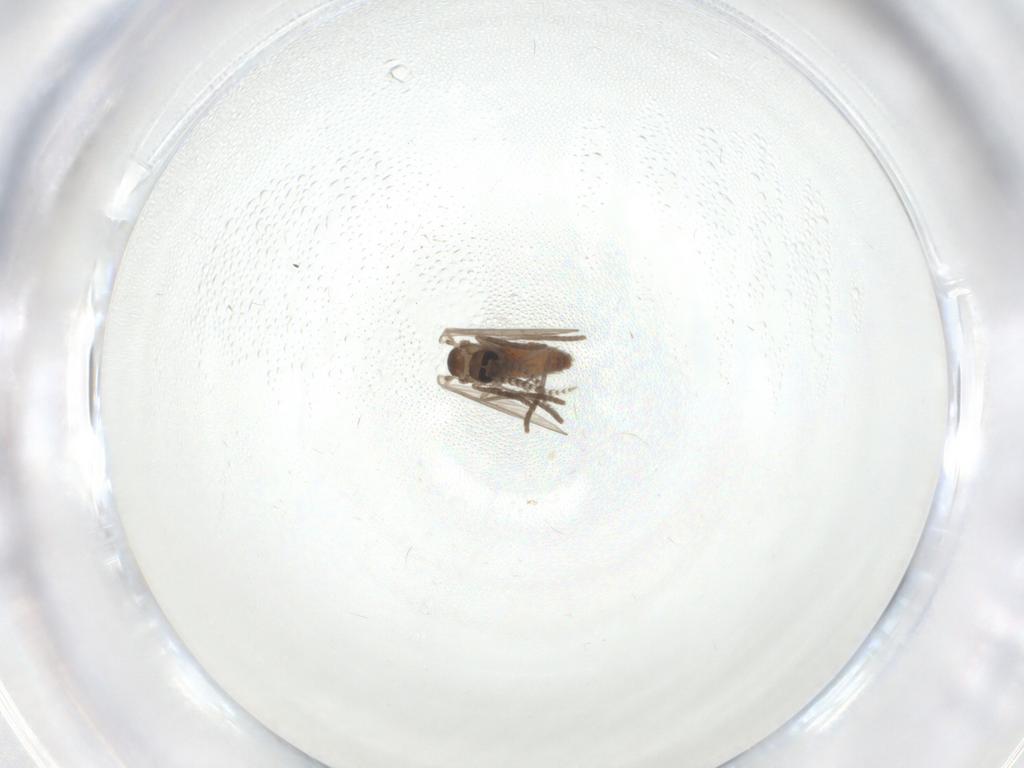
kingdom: Animalia
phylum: Arthropoda
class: Insecta
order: Diptera
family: Psychodidae
